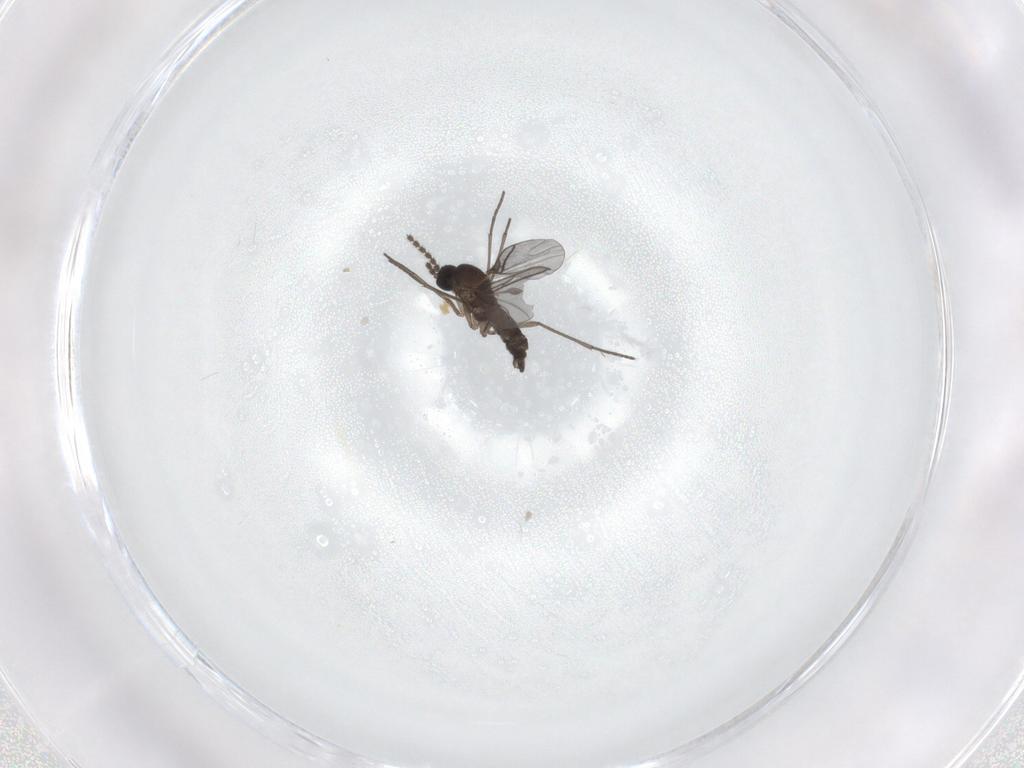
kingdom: Animalia
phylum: Arthropoda
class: Insecta
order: Diptera
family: Sciaridae
